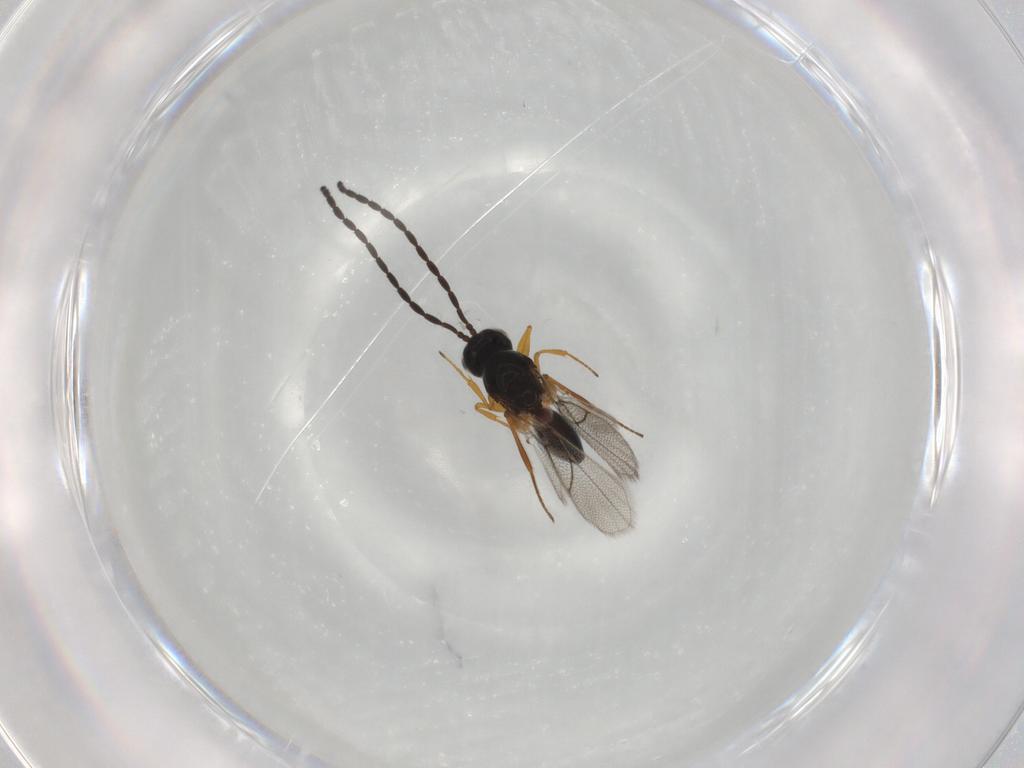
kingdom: Animalia
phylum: Arthropoda
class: Insecta
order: Hymenoptera
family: Figitidae
